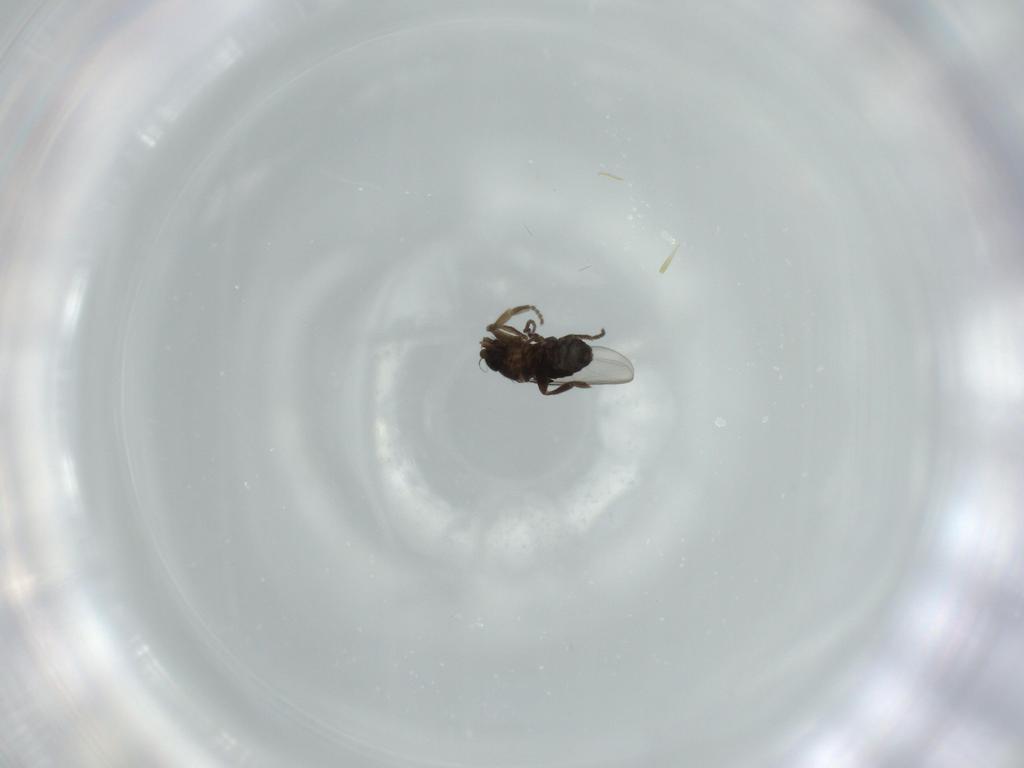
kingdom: Animalia
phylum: Arthropoda
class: Insecta
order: Diptera
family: Phoridae
